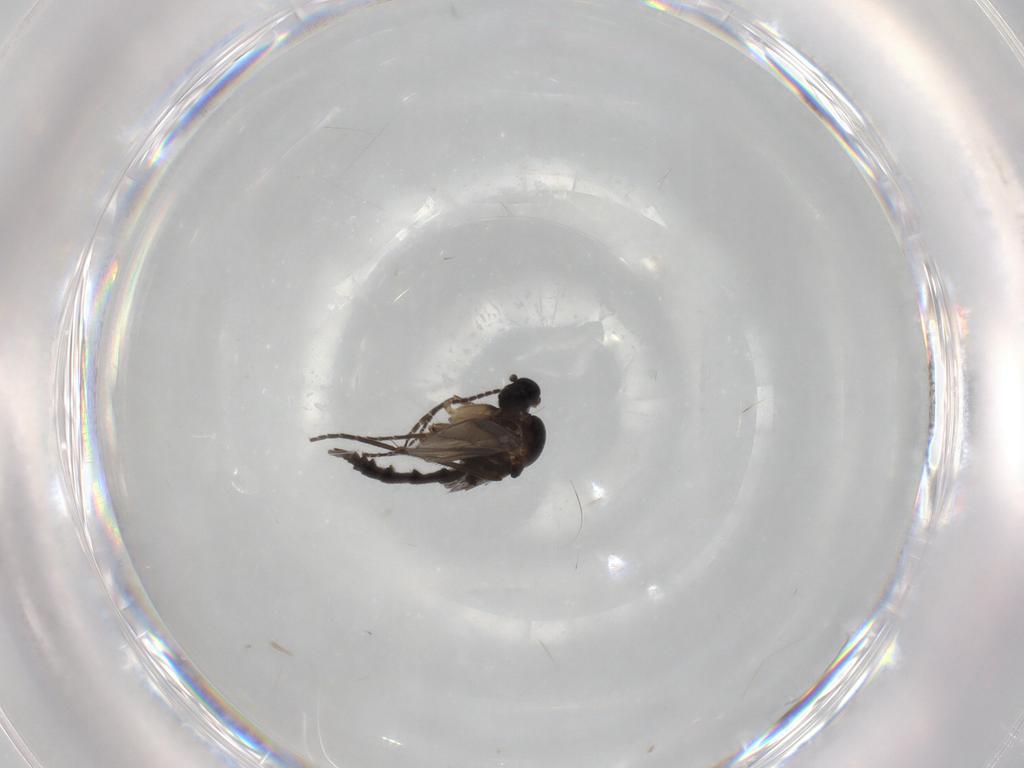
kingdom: Animalia
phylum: Arthropoda
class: Insecta
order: Diptera
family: Sciaridae
